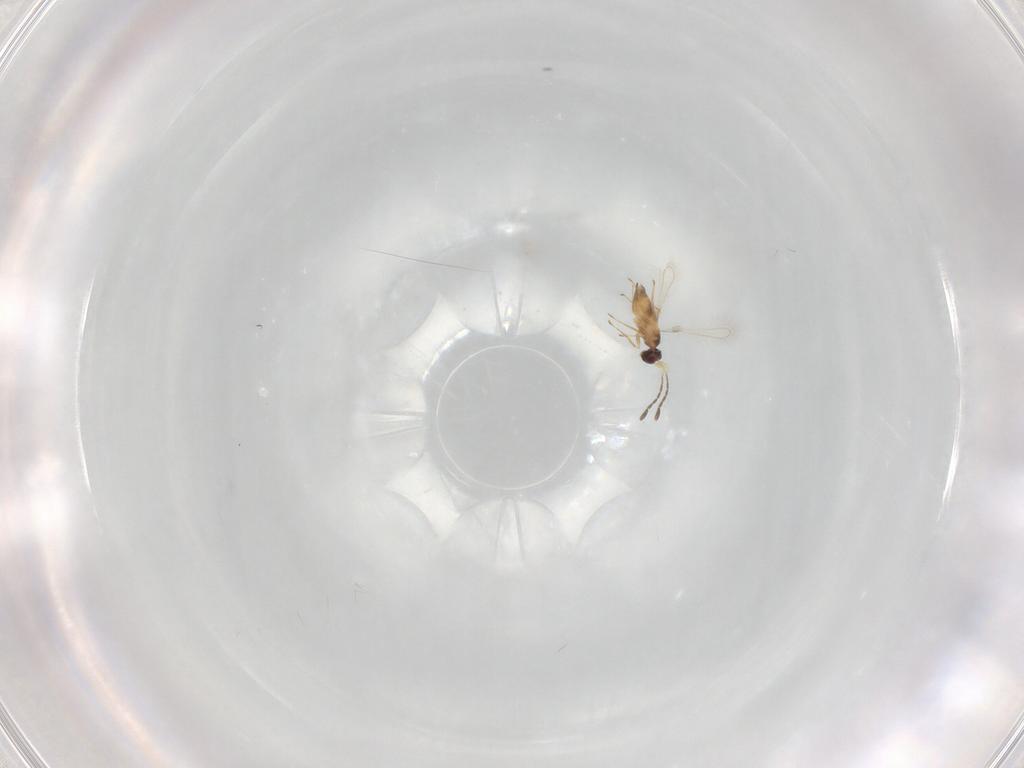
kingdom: Animalia
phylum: Arthropoda
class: Insecta
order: Hymenoptera
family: Mymaridae
